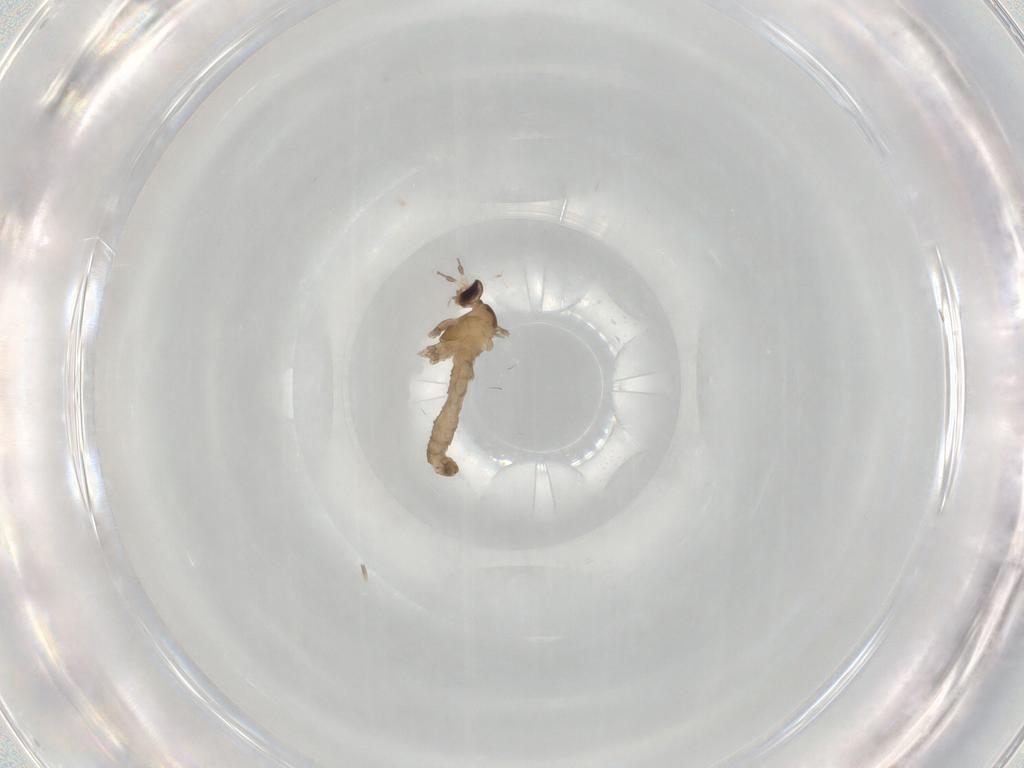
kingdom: Animalia
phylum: Arthropoda
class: Insecta
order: Diptera
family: Cecidomyiidae
